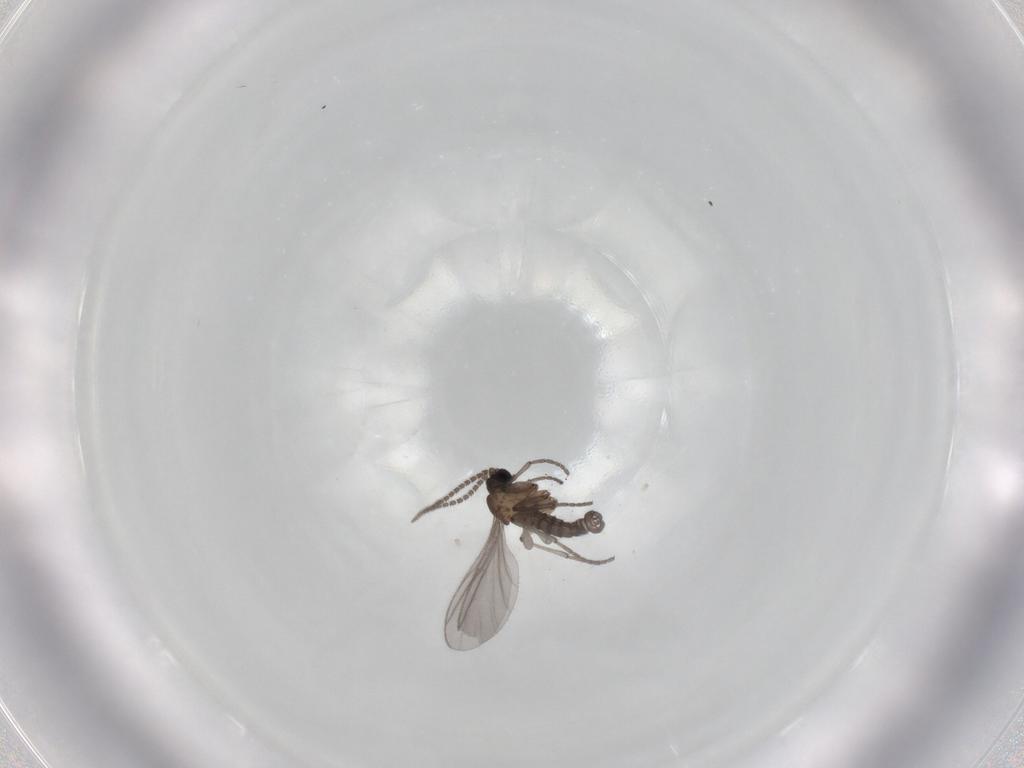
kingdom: Animalia
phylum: Arthropoda
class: Insecta
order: Diptera
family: Ceratopogonidae
